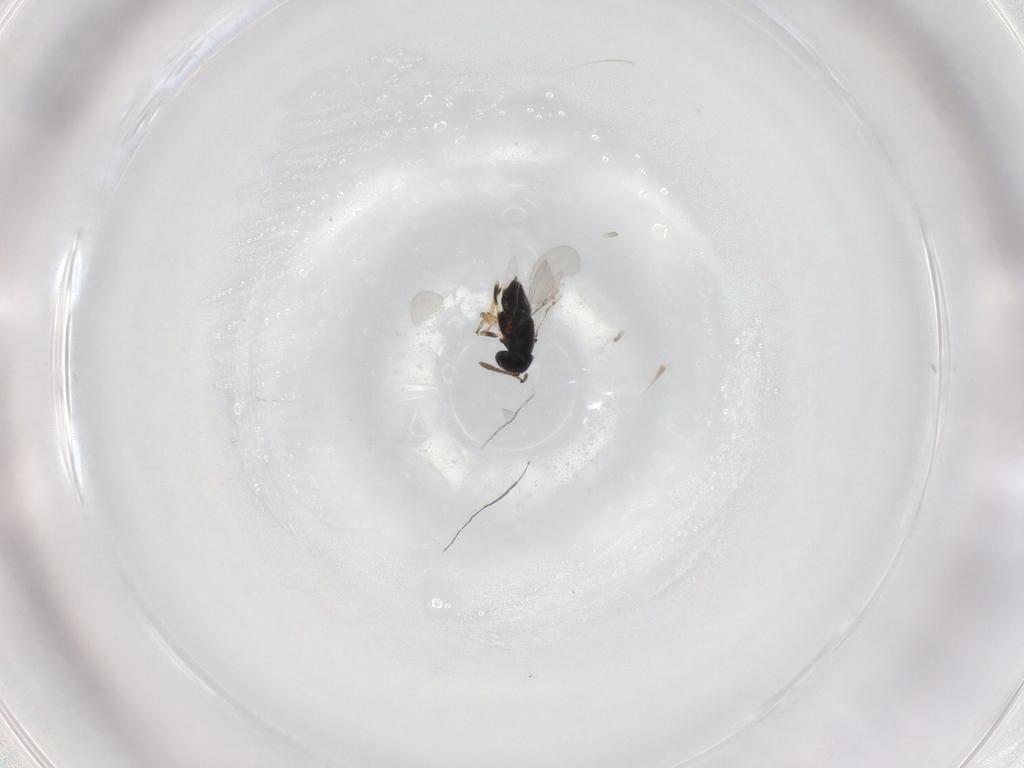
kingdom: Animalia
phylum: Arthropoda
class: Insecta
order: Hymenoptera
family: Encyrtidae
